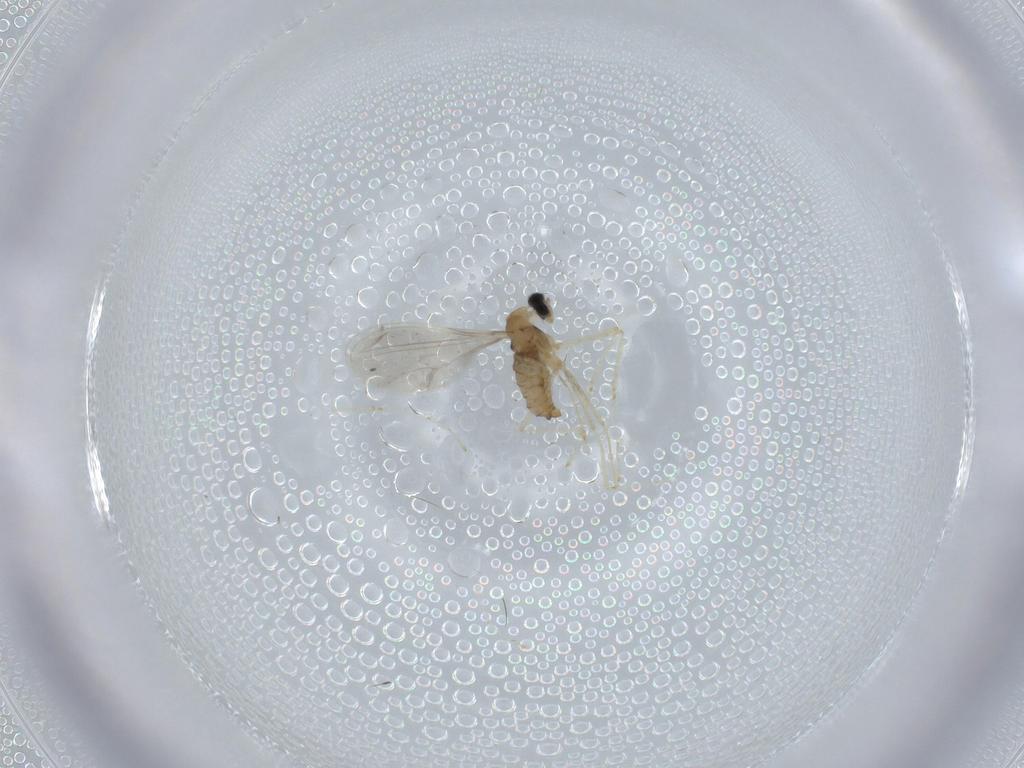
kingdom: Animalia
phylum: Arthropoda
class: Insecta
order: Diptera
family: Cecidomyiidae
